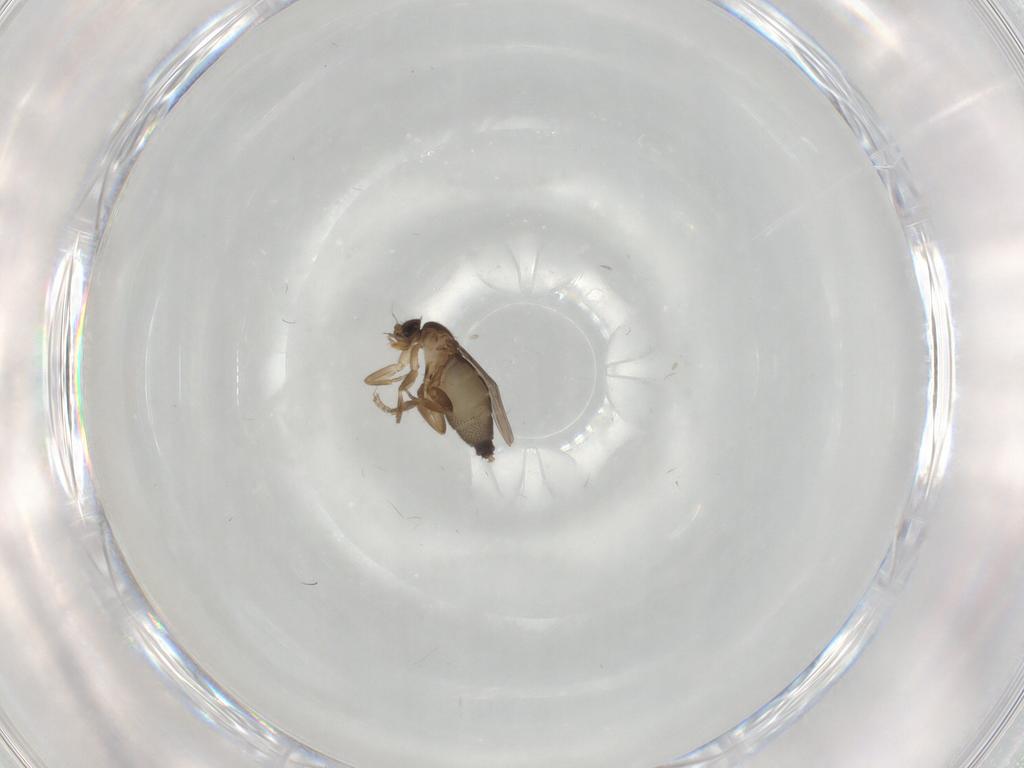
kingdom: Animalia
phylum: Arthropoda
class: Insecta
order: Diptera
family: Phoridae
